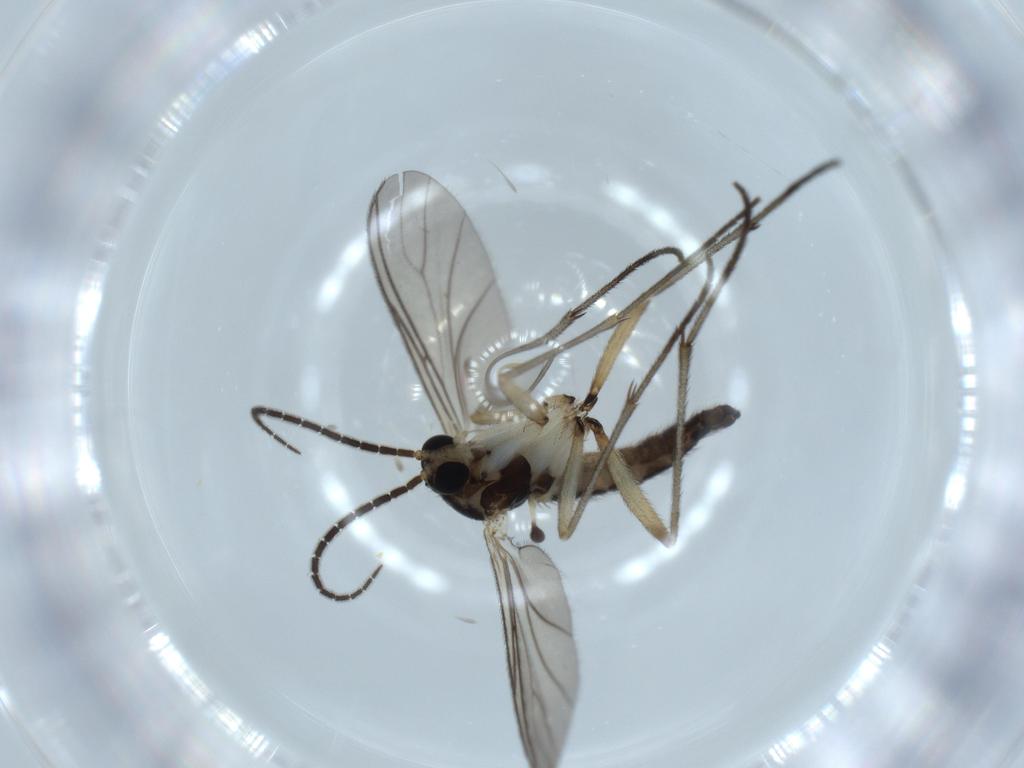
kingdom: Animalia
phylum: Arthropoda
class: Insecta
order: Diptera
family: Sciaridae
